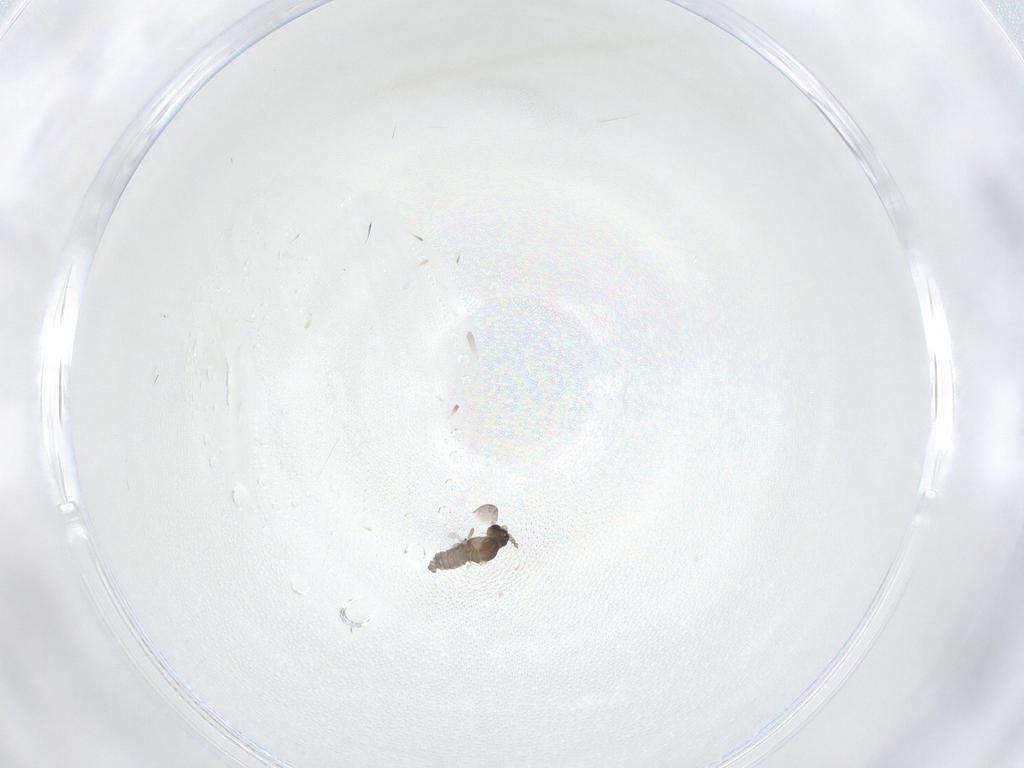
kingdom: Animalia
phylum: Arthropoda
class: Insecta
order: Diptera
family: Cecidomyiidae
